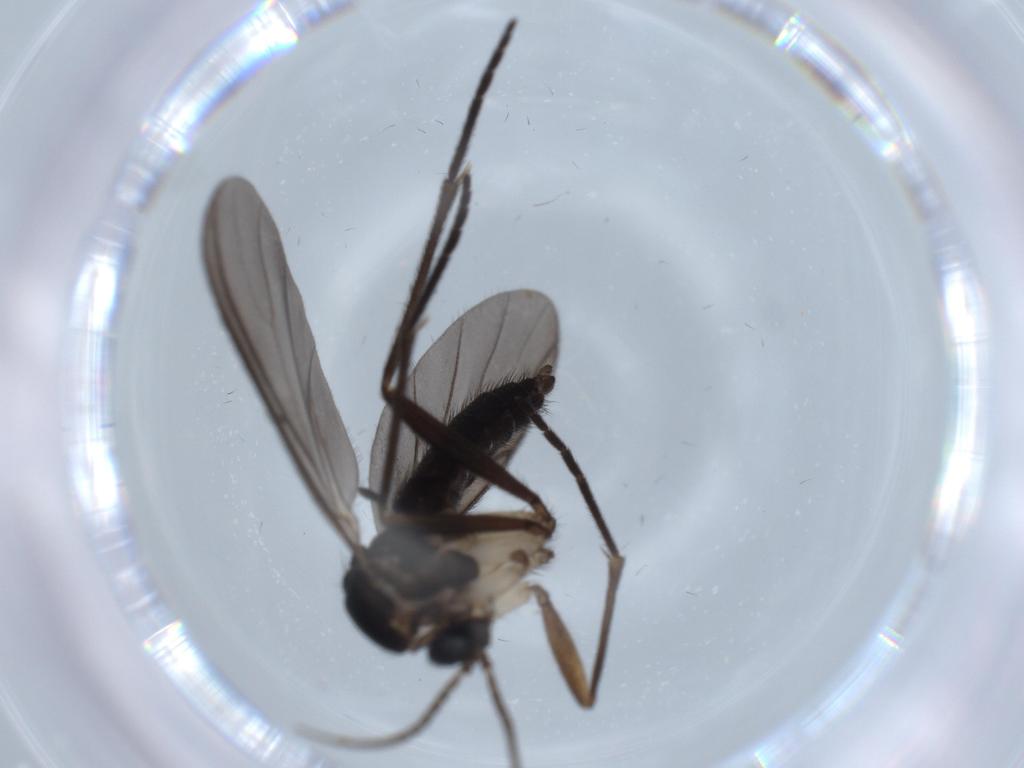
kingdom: Animalia
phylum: Arthropoda
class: Insecta
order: Diptera
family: Sciaridae
